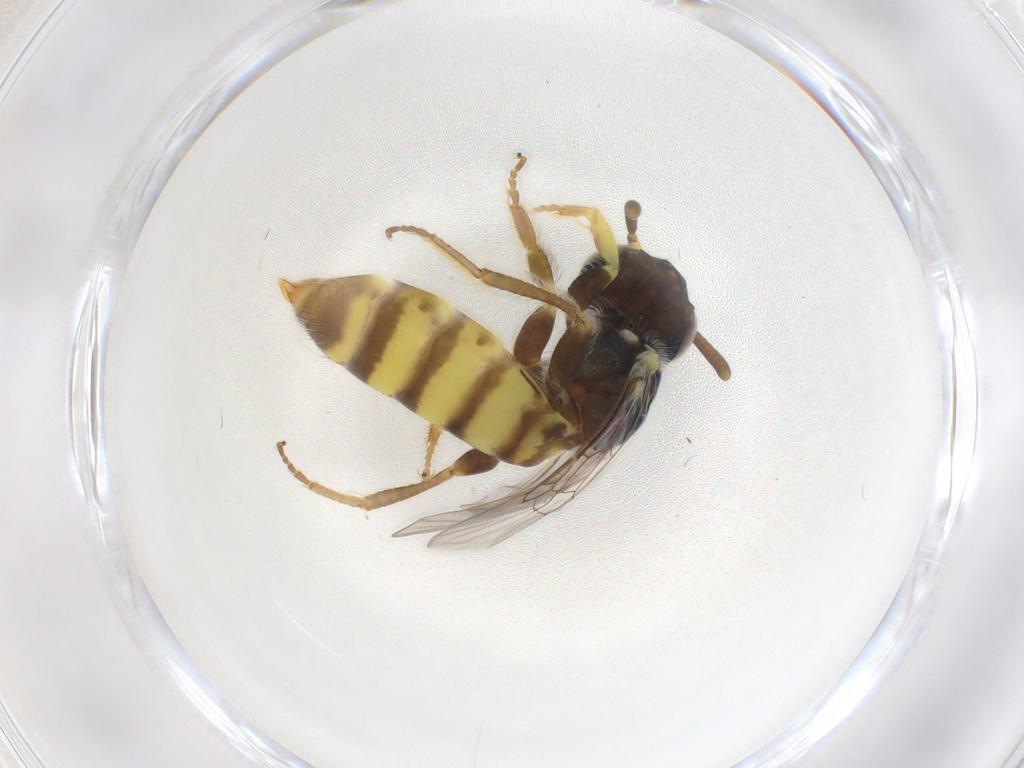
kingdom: Animalia
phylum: Arthropoda
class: Insecta
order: Hymenoptera
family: Andrenidae
